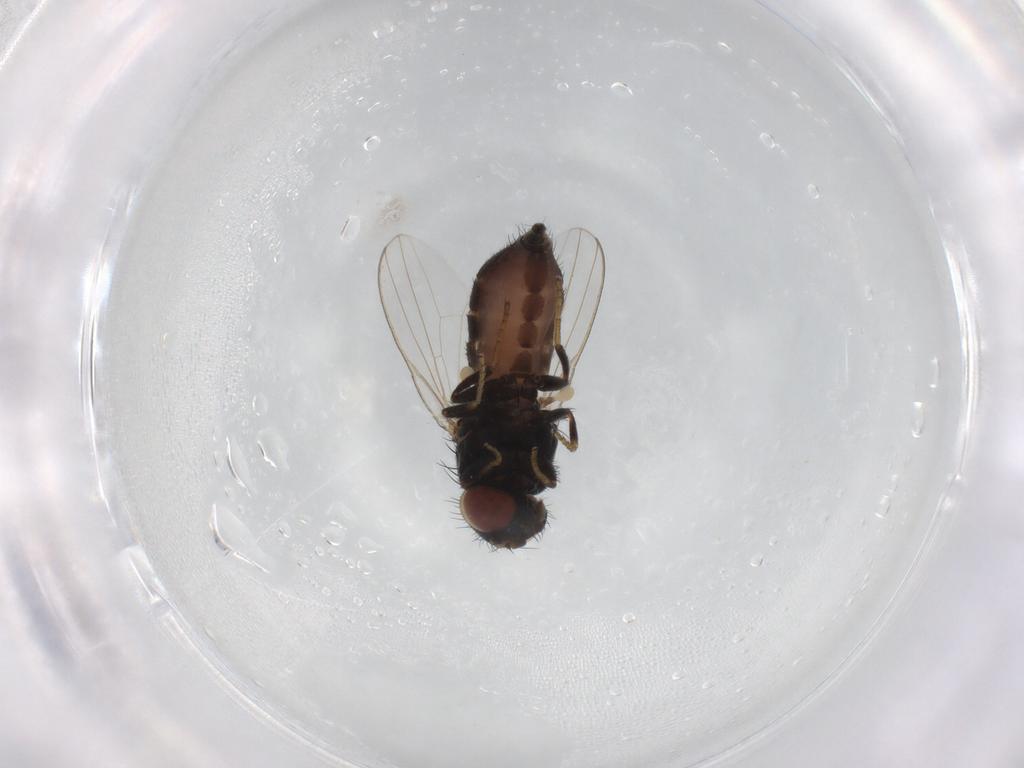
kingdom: Animalia
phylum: Arthropoda
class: Insecta
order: Diptera
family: Milichiidae
